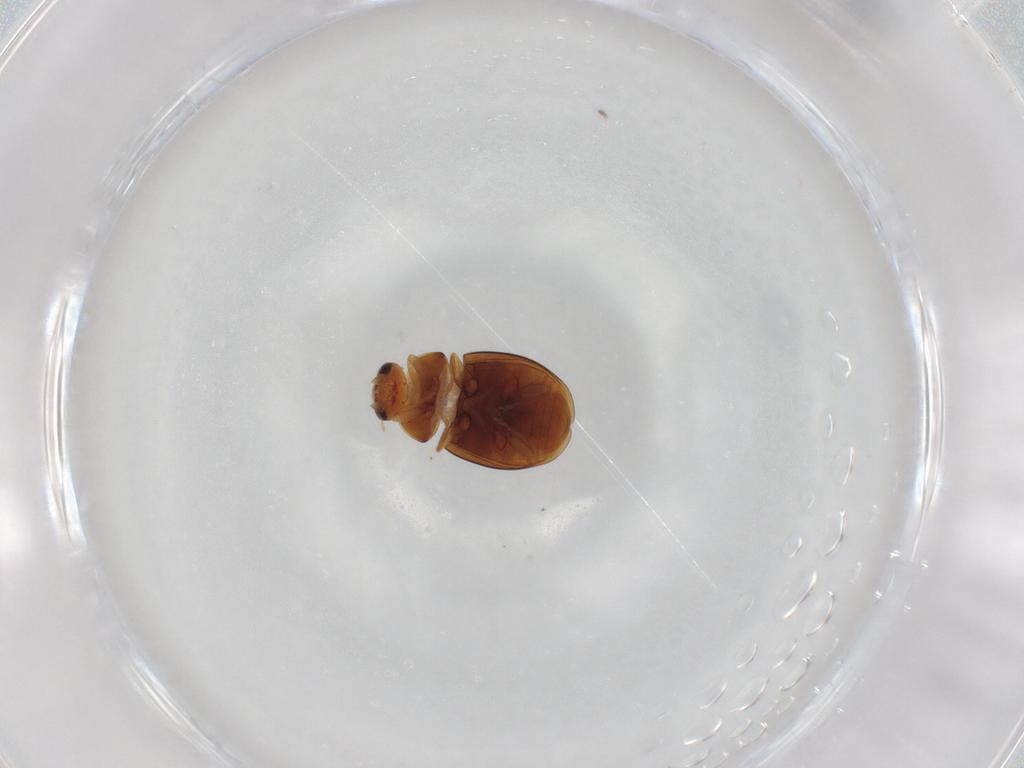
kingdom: Animalia
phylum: Arthropoda
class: Insecta
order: Coleoptera
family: Coccinellidae
